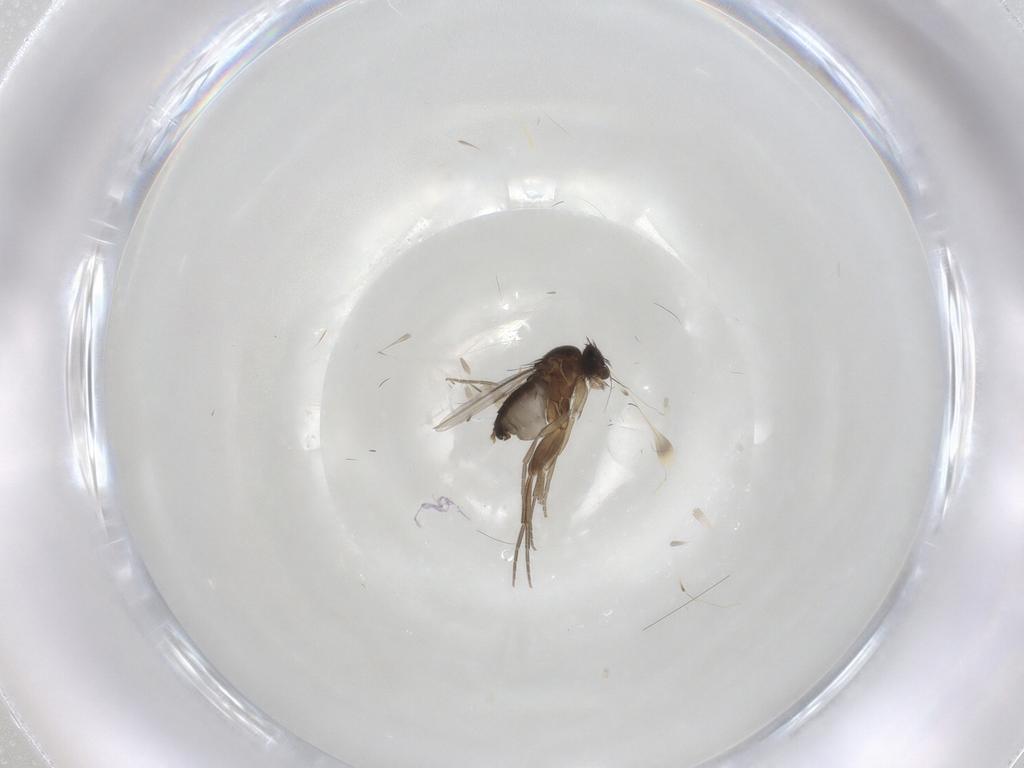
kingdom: Animalia
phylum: Arthropoda
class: Insecta
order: Diptera
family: Phoridae
